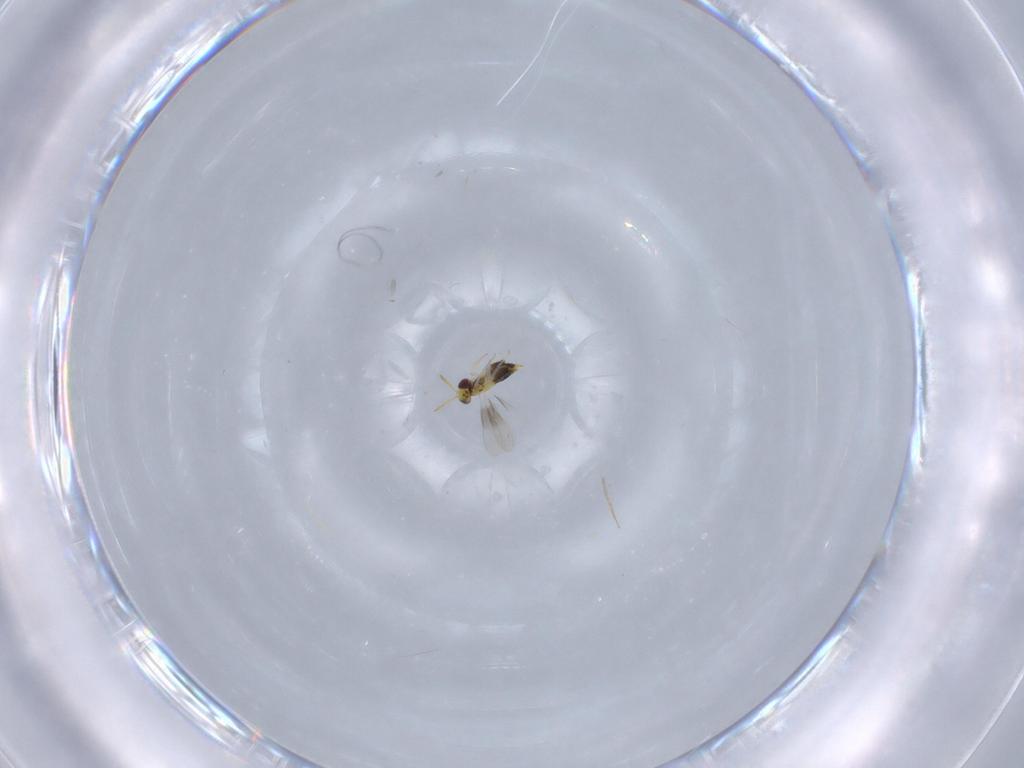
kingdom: Animalia
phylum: Arthropoda
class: Insecta
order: Hymenoptera
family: Aphelinidae
